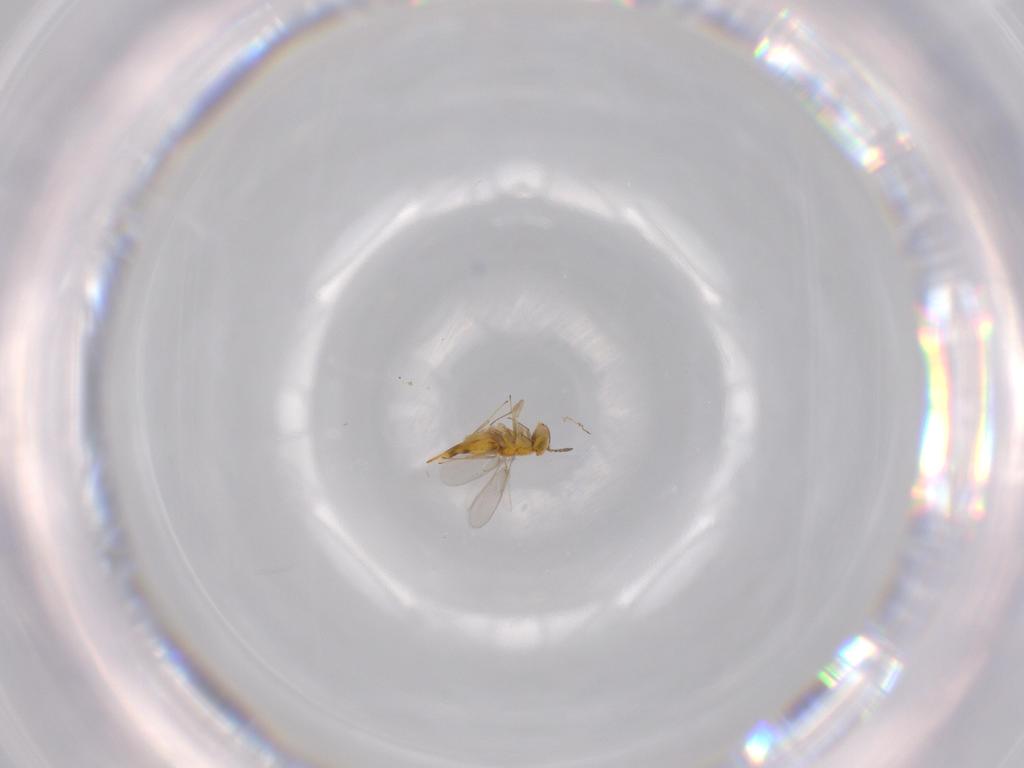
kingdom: Animalia
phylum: Arthropoda
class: Insecta
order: Hymenoptera
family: Aphelinidae
